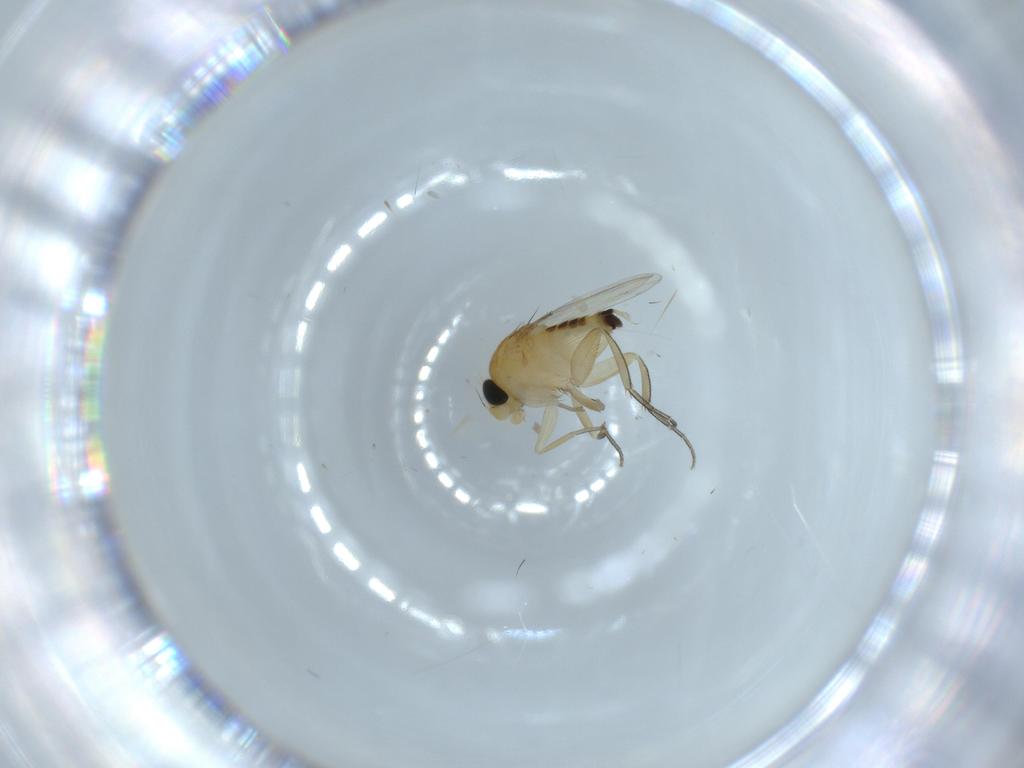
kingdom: Animalia
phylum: Arthropoda
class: Insecta
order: Diptera
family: Phoridae
